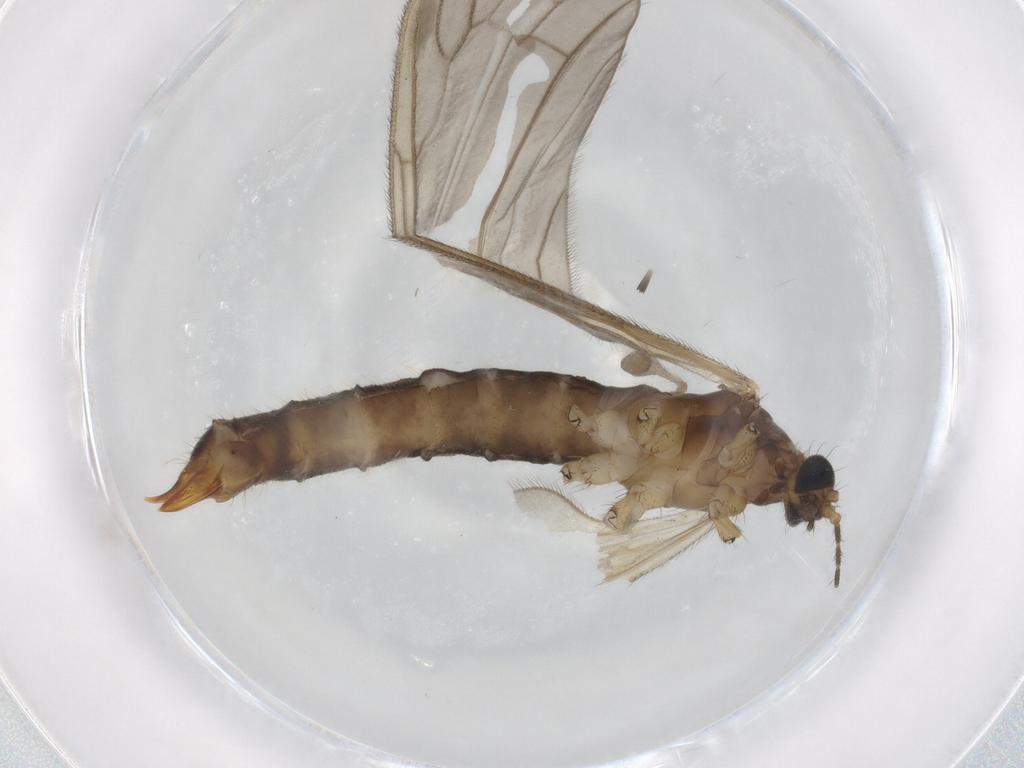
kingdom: Animalia
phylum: Arthropoda
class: Insecta
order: Diptera
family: Limoniidae
